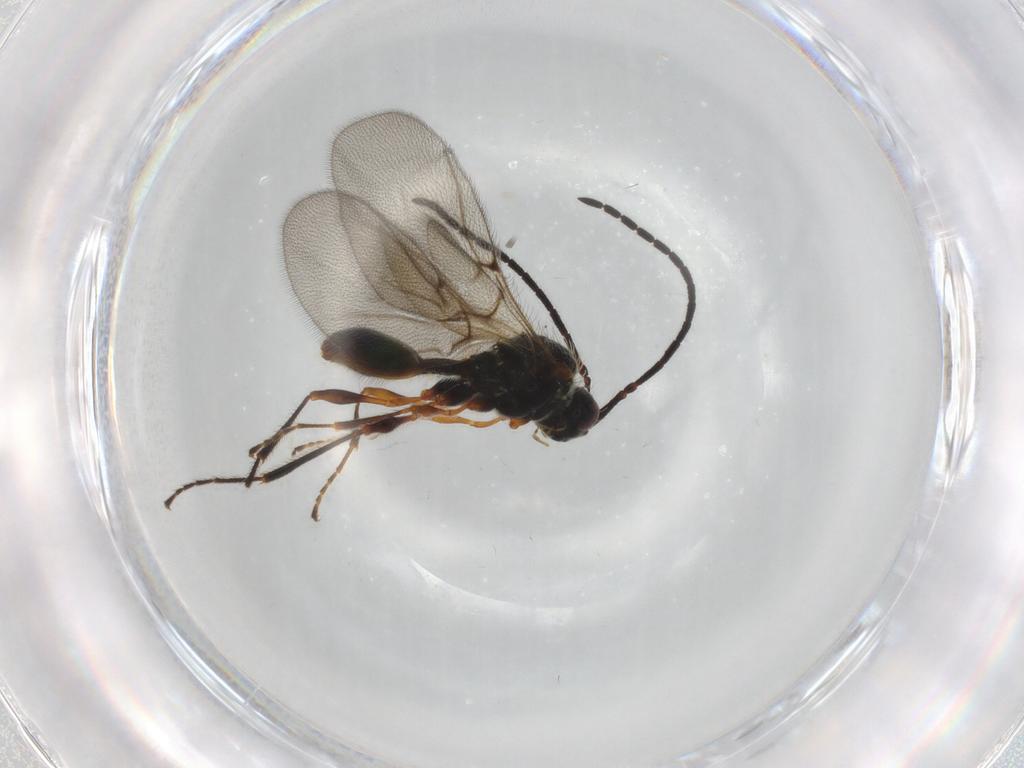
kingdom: Animalia
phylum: Arthropoda
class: Insecta
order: Hymenoptera
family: Diapriidae
